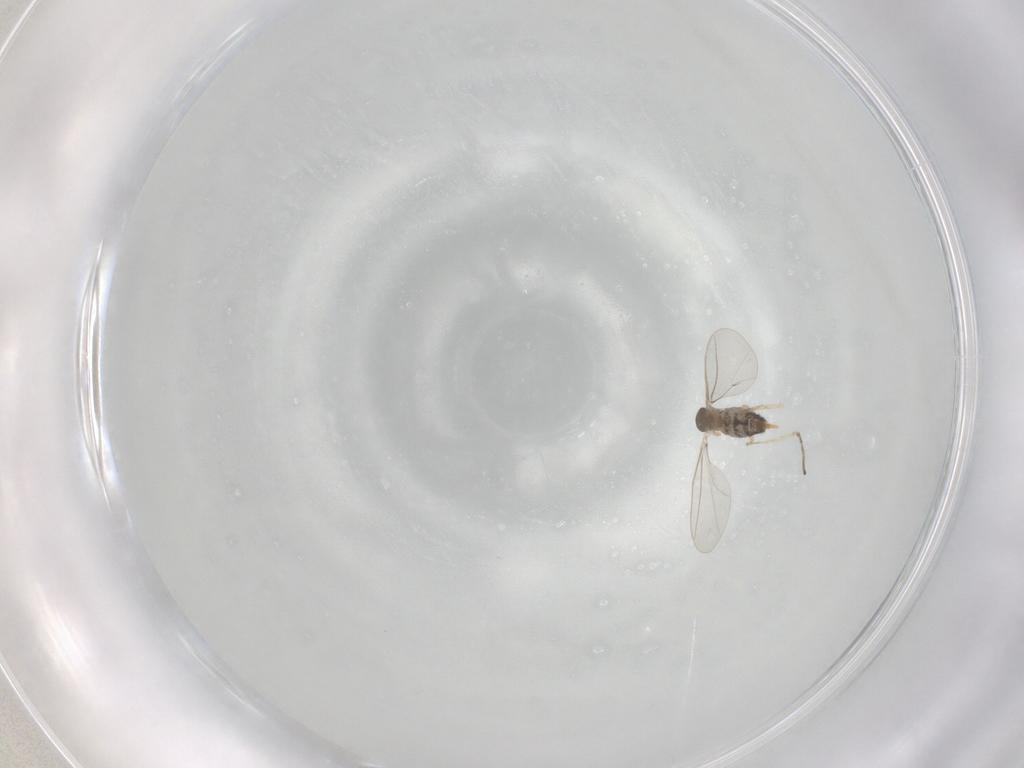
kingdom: Animalia
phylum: Arthropoda
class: Insecta
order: Diptera
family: Cecidomyiidae
